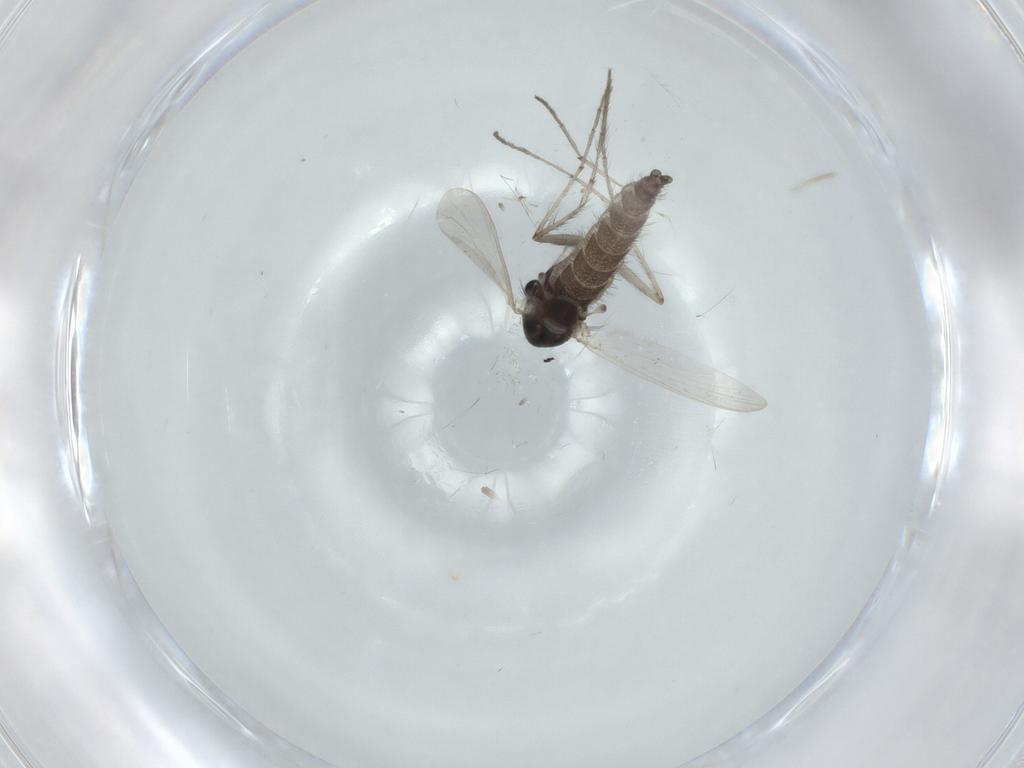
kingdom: Animalia
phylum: Arthropoda
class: Insecta
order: Diptera
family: Chironomidae
